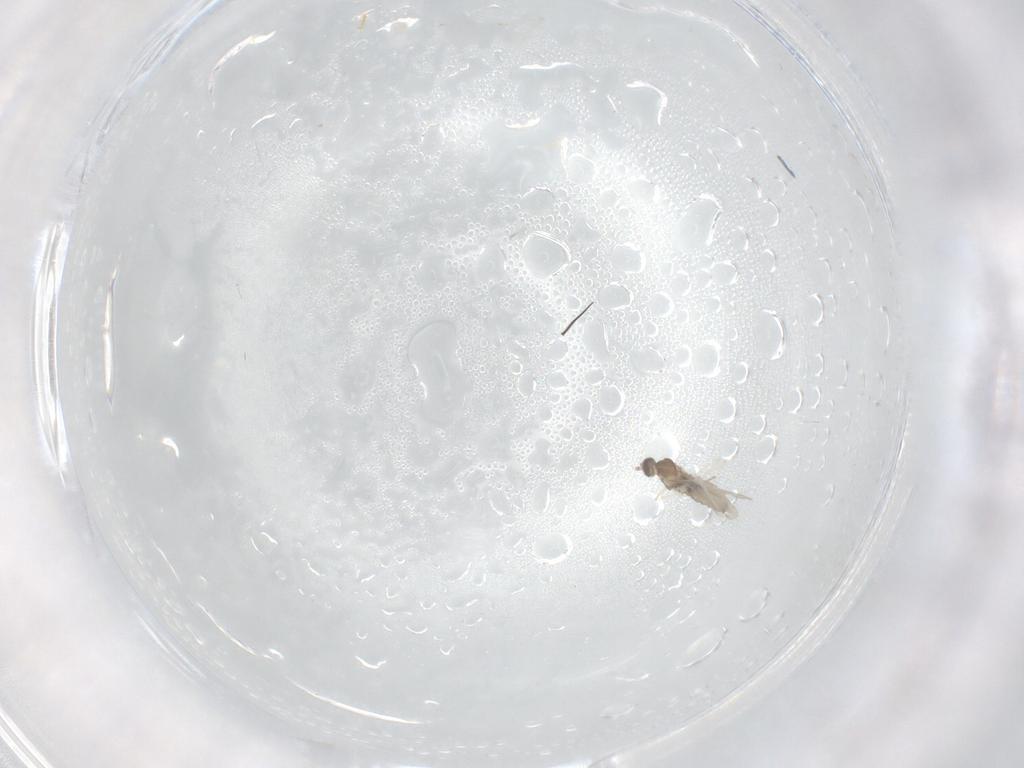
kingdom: Animalia
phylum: Arthropoda
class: Insecta
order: Diptera
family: Cecidomyiidae
